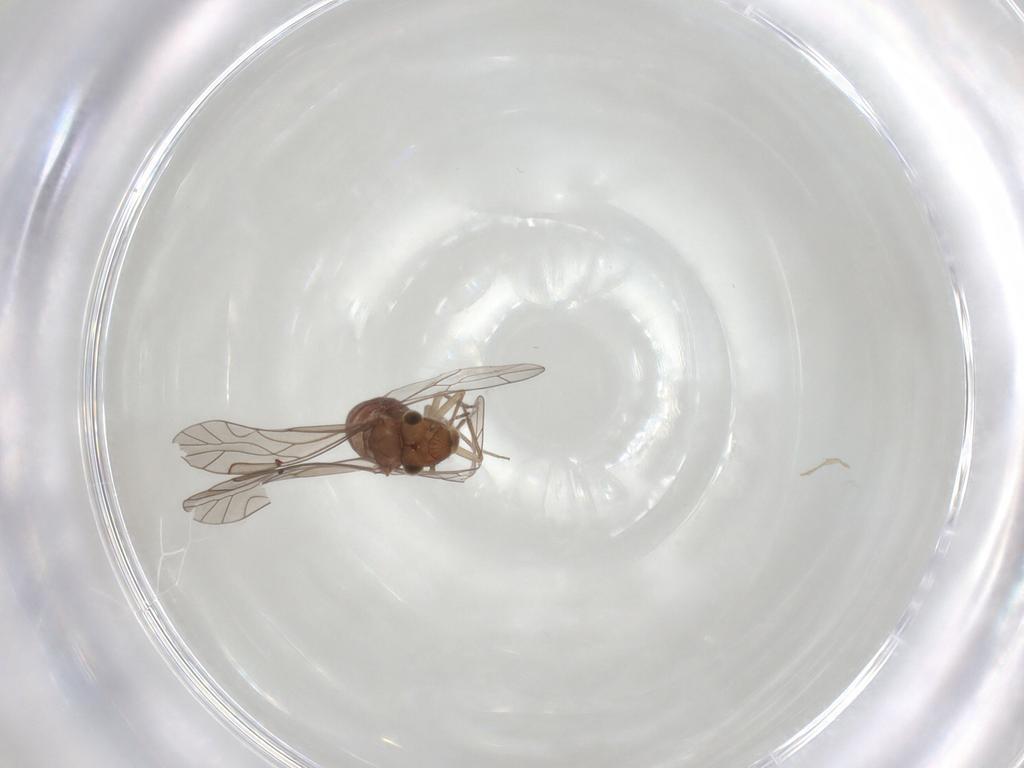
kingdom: Animalia
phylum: Arthropoda
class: Insecta
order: Psocodea
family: Lachesillidae
